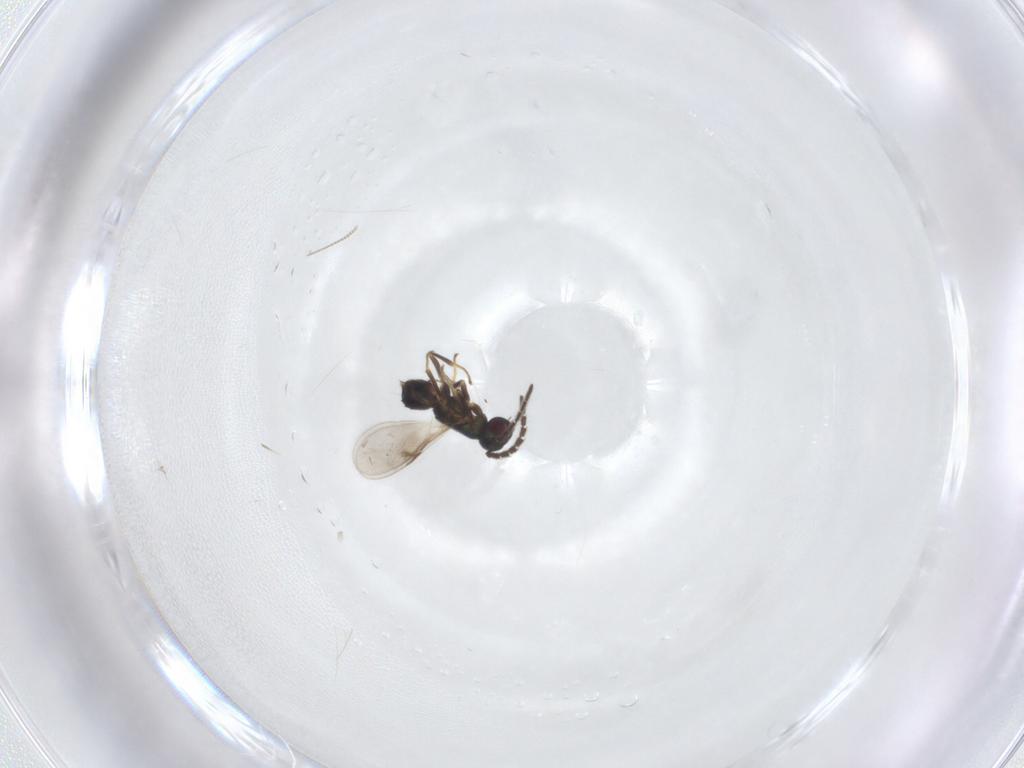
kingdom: Animalia
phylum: Arthropoda
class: Insecta
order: Hymenoptera
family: Encyrtidae
